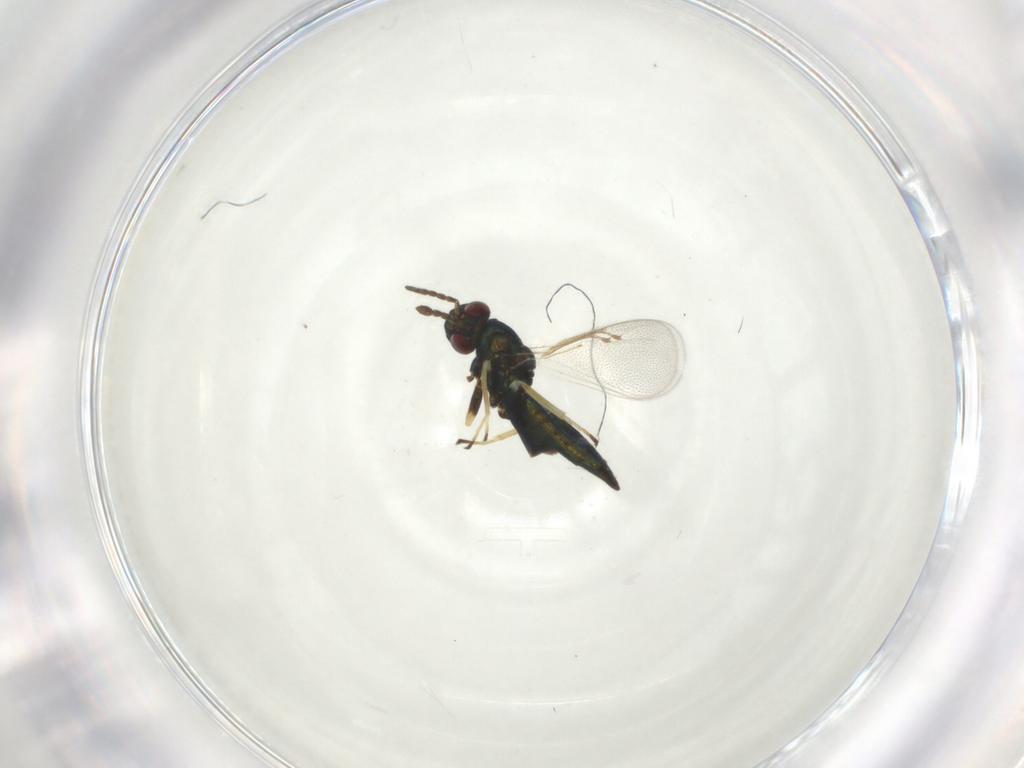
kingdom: Animalia
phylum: Arthropoda
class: Insecta
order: Hymenoptera
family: Eulophidae
